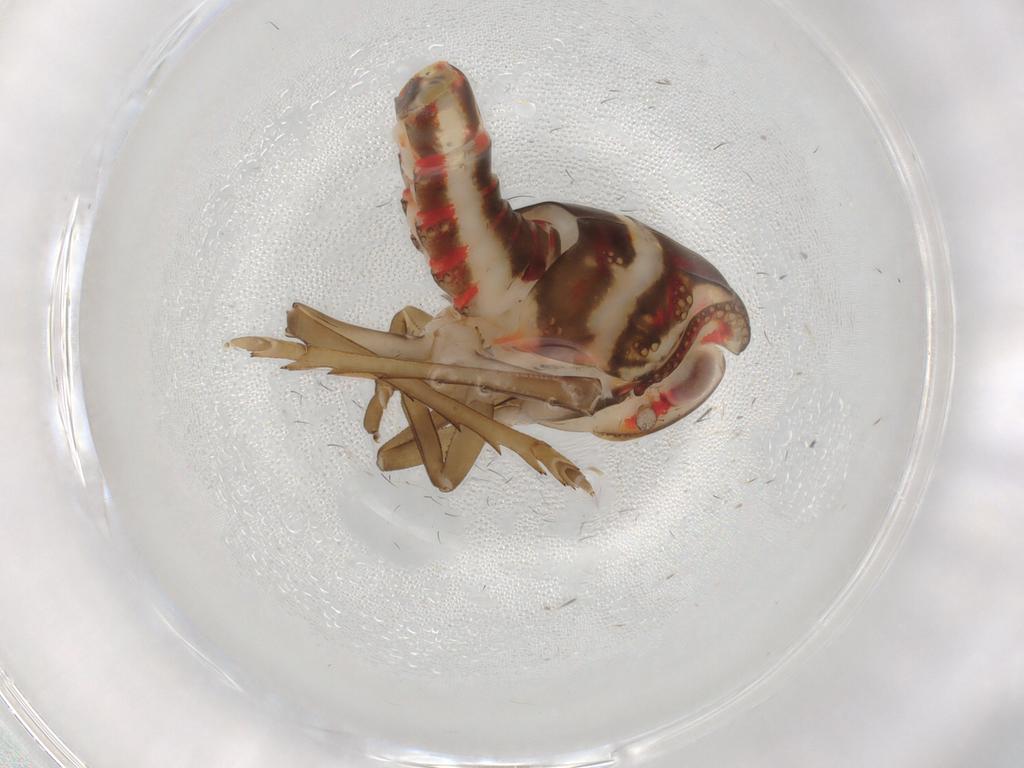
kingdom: Animalia
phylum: Arthropoda
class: Insecta
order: Hemiptera
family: Nogodinidae
